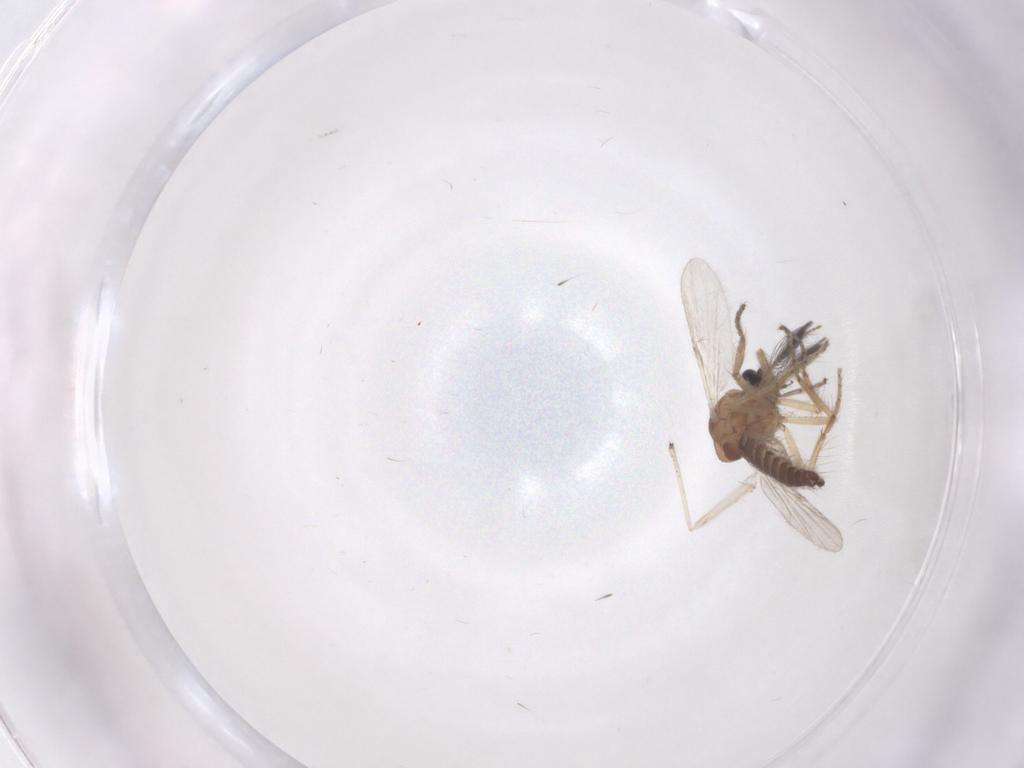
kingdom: Animalia
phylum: Arthropoda
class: Insecta
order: Diptera
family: Ceratopogonidae
